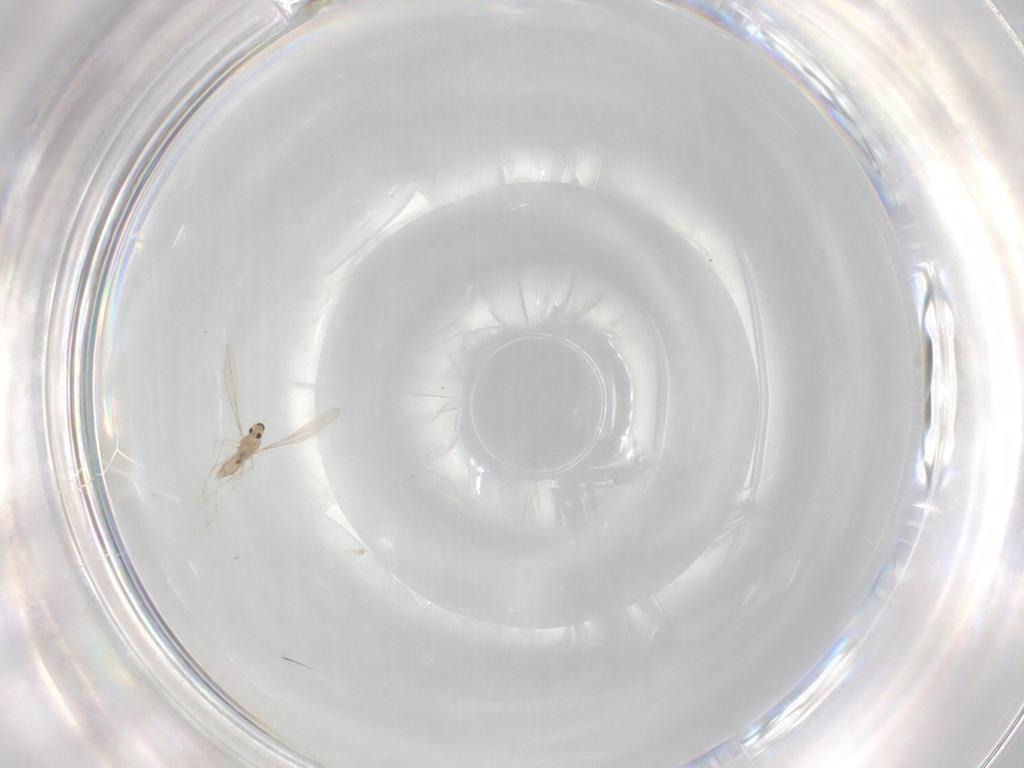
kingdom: Animalia
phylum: Arthropoda
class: Insecta
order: Diptera
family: Cecidomyiidae
